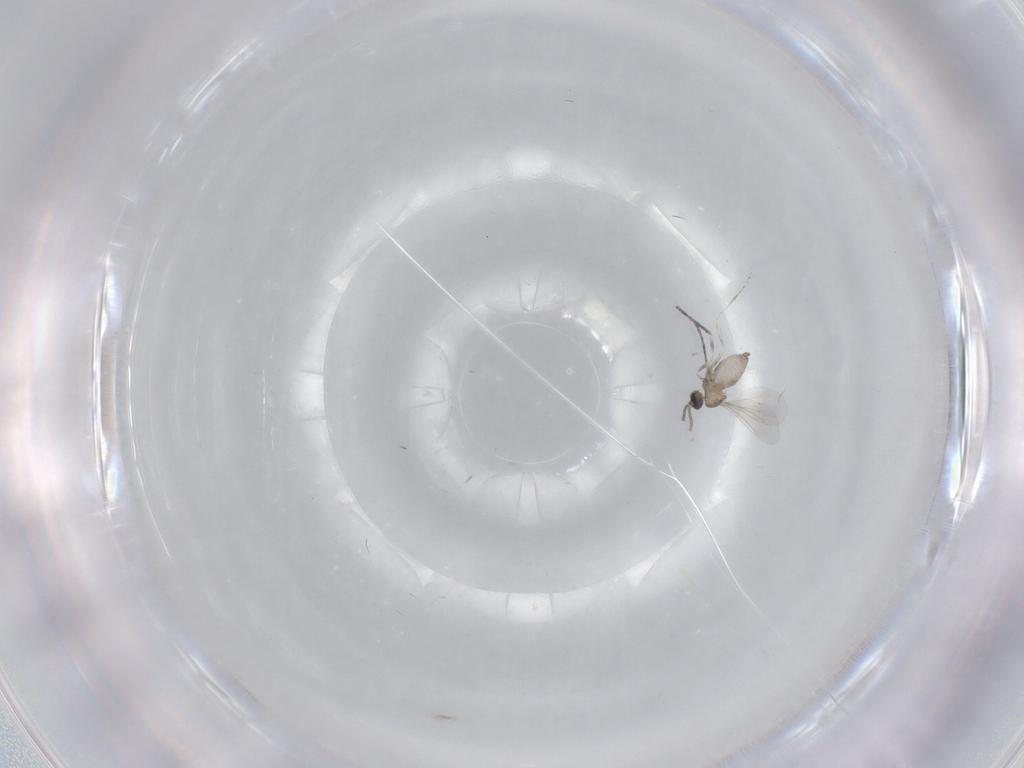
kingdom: Animalia
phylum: Arthropoda
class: Insecta
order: Diptera
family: Cecidomyiidae
